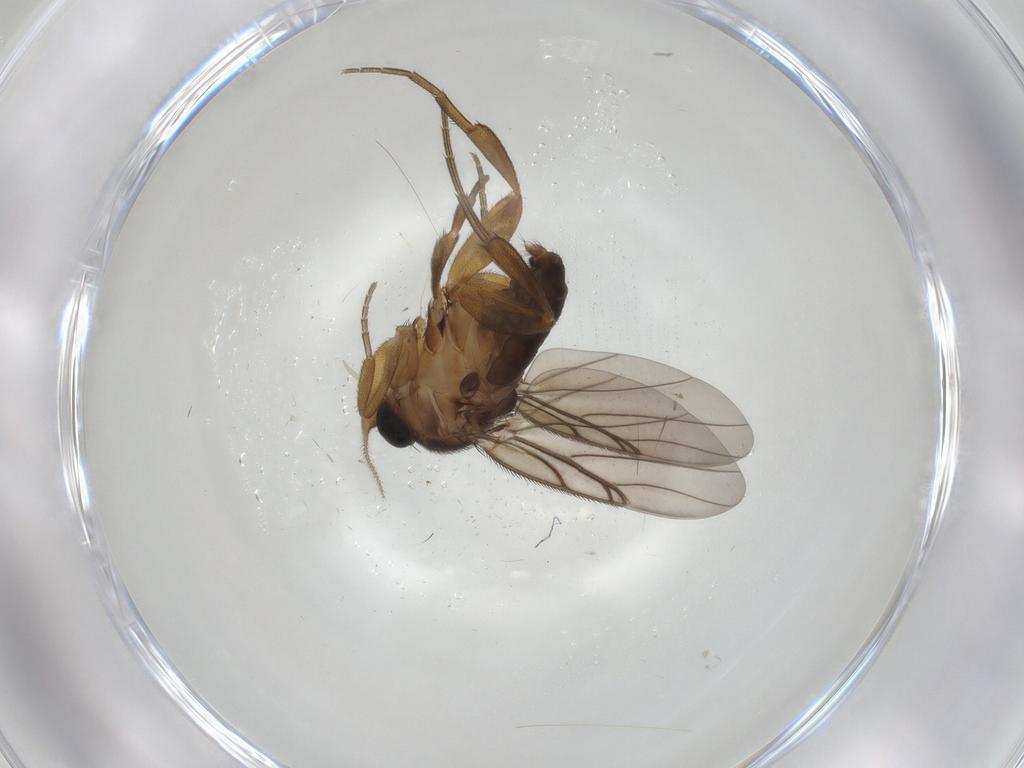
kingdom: Animalia
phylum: Arthropoda
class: Insecta
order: Diptera
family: Cecidomyiidae
